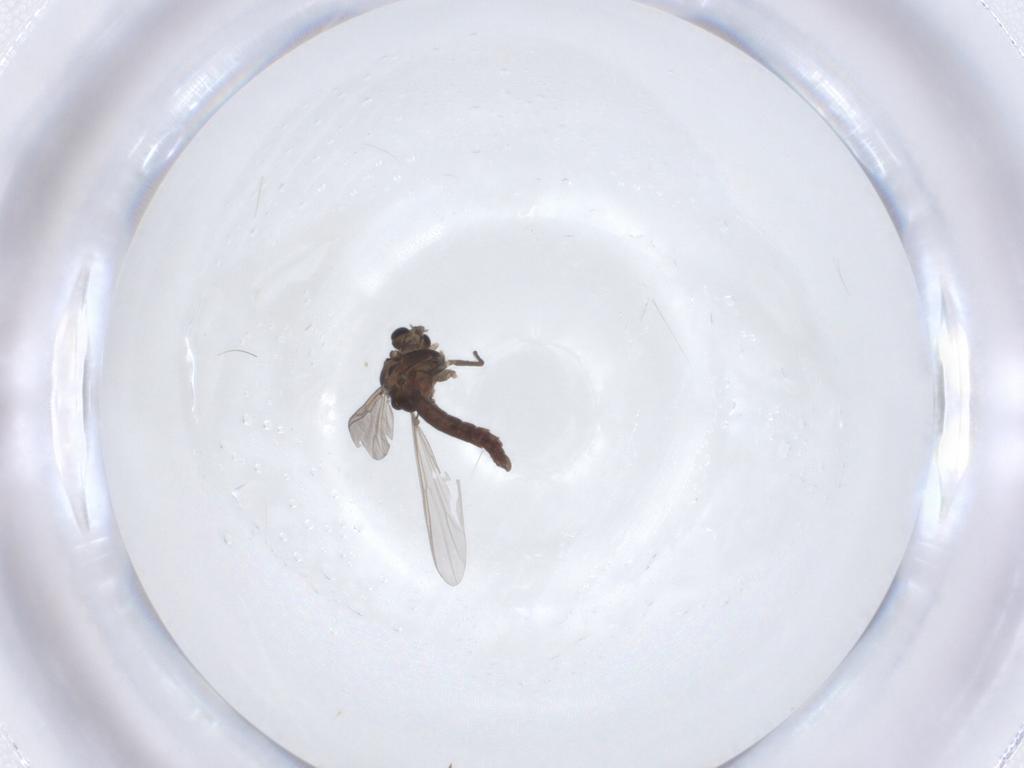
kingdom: Animalia
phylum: Arthropoda
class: Insecta
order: Diptera
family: Chironomidae
